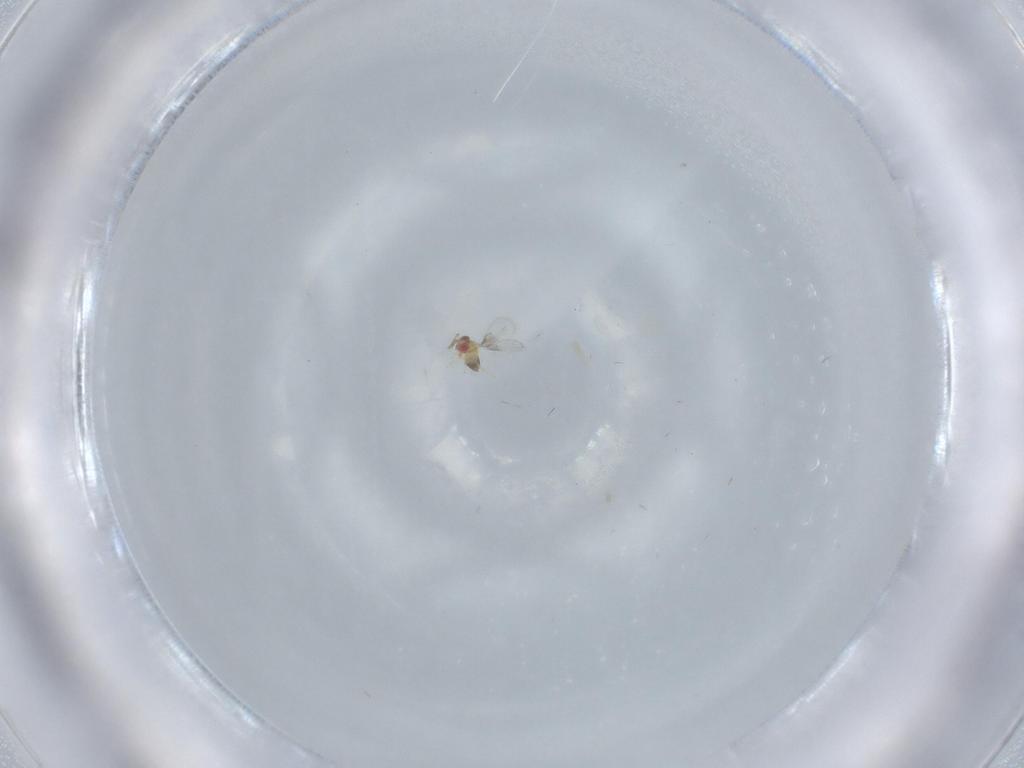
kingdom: Animalia
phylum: Arthropoda
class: Insecta
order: Hymenoptera
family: Trichogrammatidae
